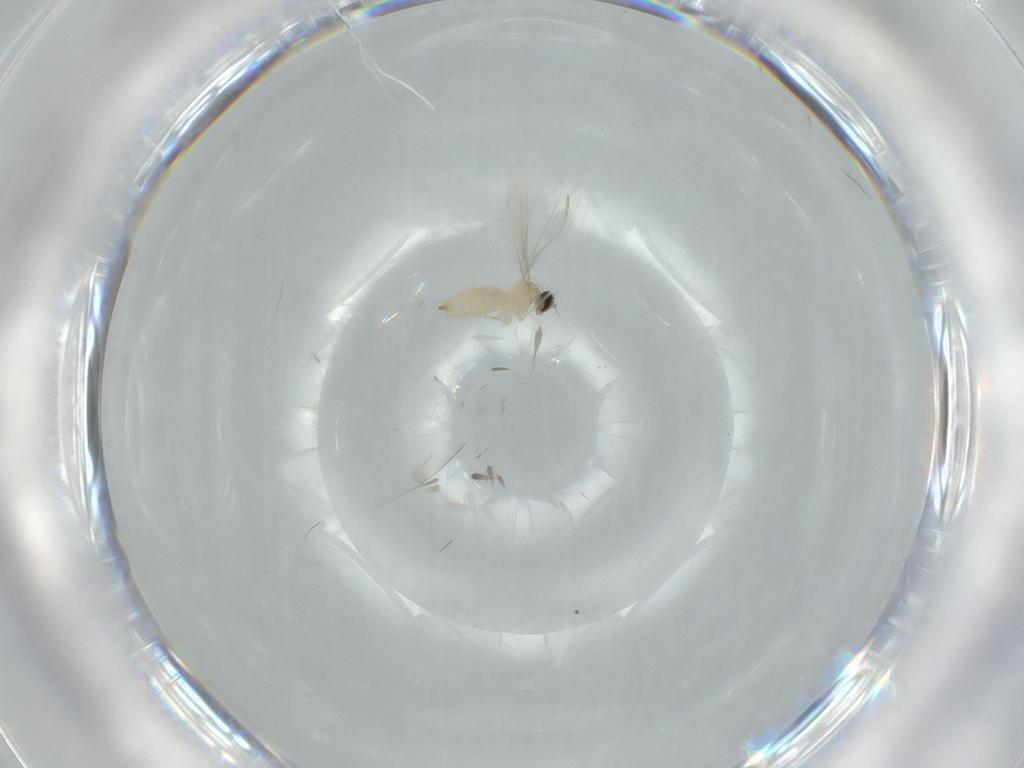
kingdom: Animalia
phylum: Arthropoda
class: Insecta
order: Diptera
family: Cecidomyiidae
